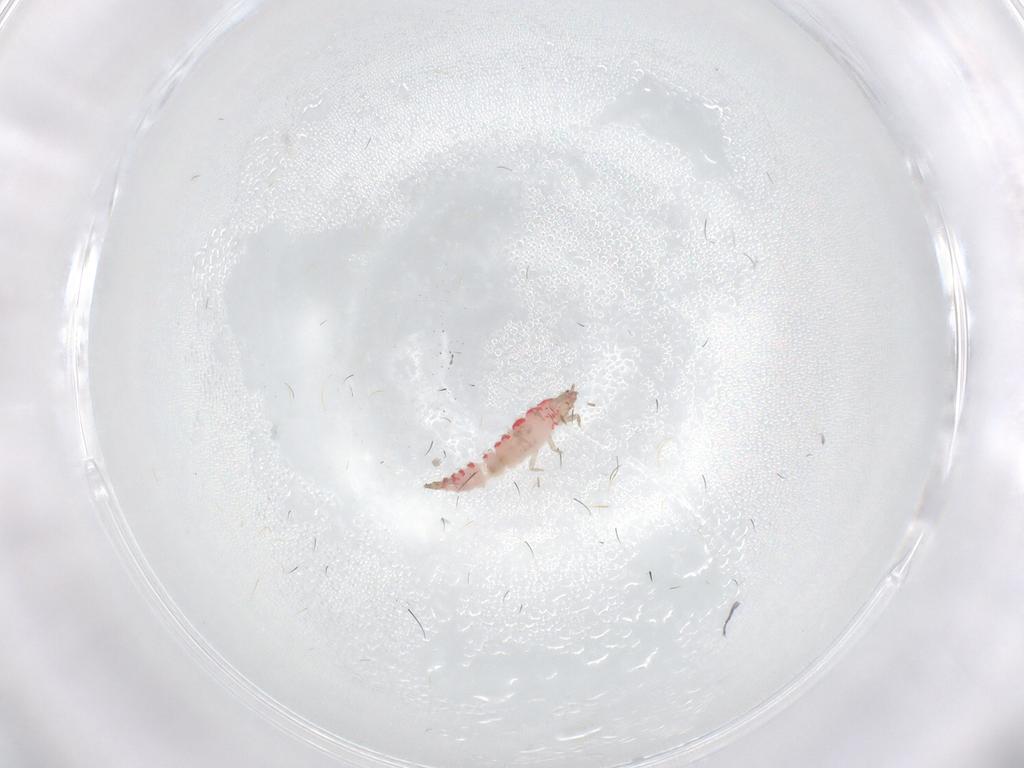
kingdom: Animalia
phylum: Arthropoda
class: Insecta
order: Thysanoptera
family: Phlaeothripidae
